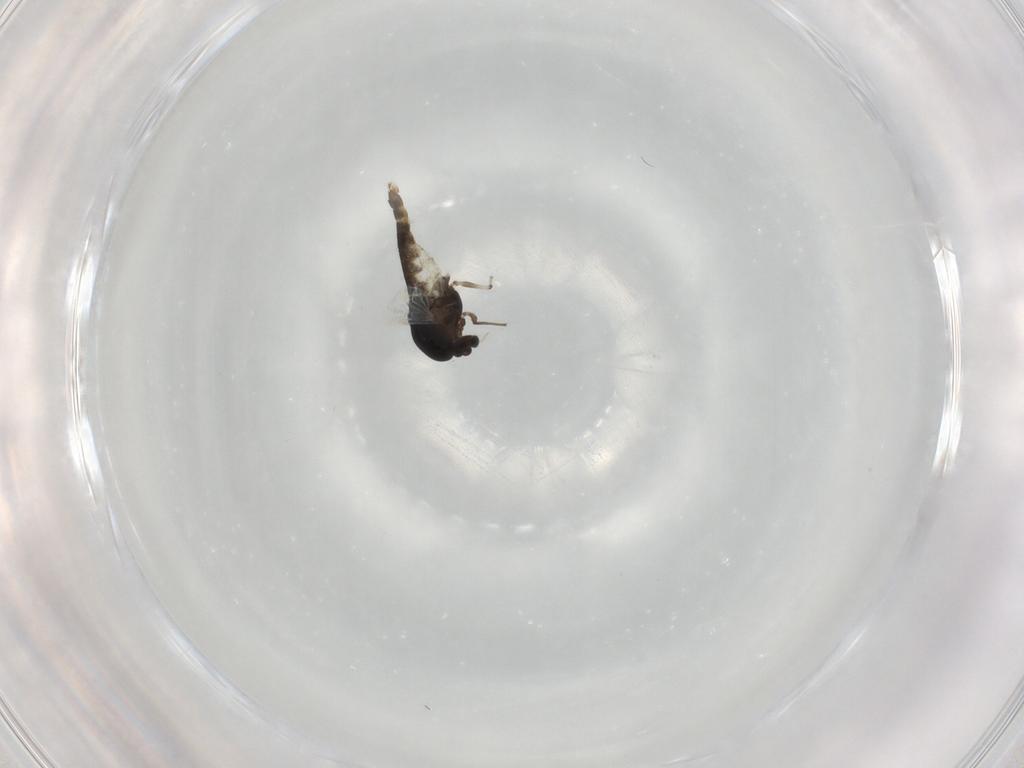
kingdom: Animalia
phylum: Arthropoda
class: Insecta
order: Diptera
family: Chironomidae
